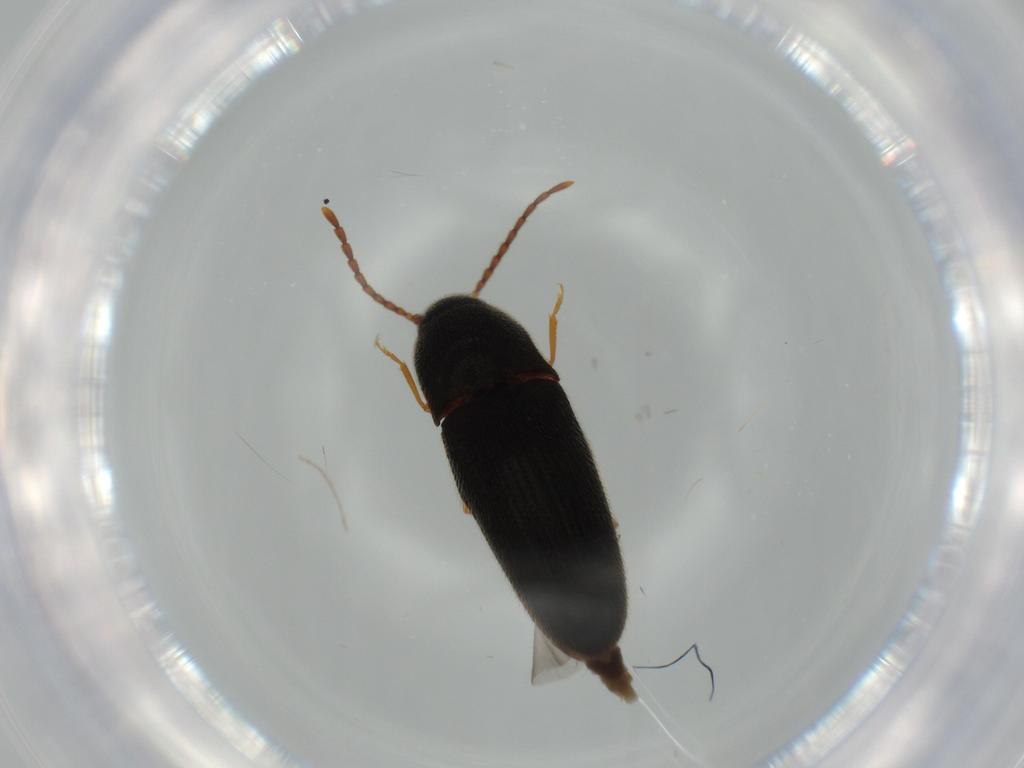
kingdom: Animalia
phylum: Arthropoda
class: Insecta
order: Coleoptera
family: Elateridae
